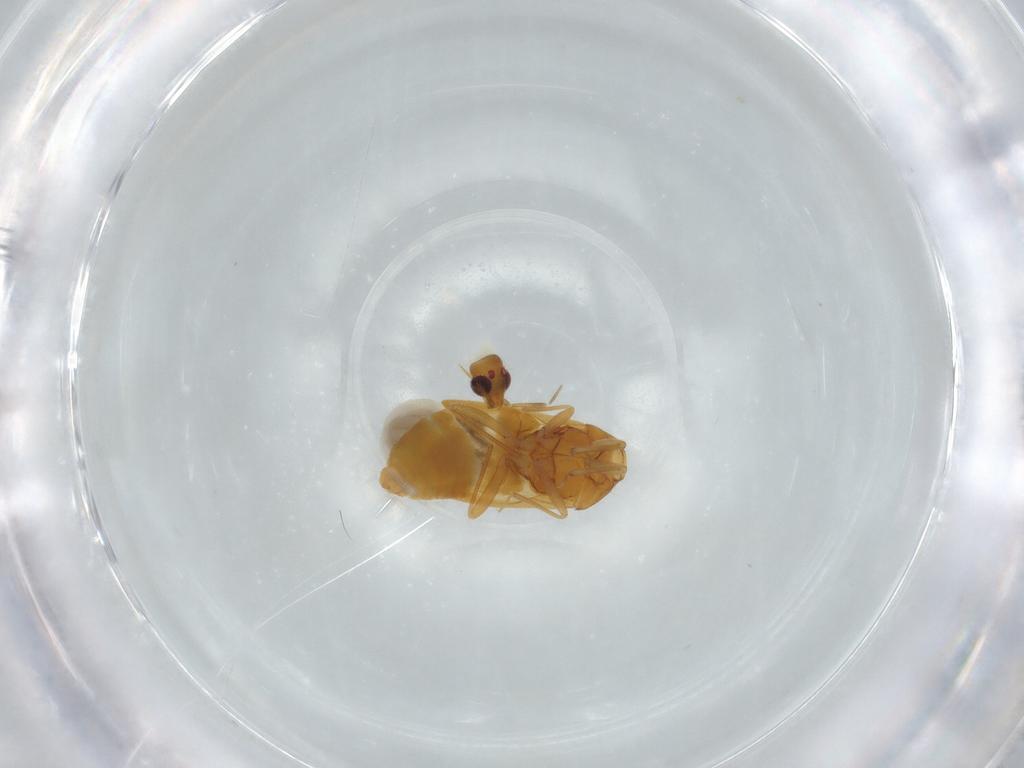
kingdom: Animalia
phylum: Arthropoda
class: Insecta
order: Hemiptera
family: Anthocoridae
